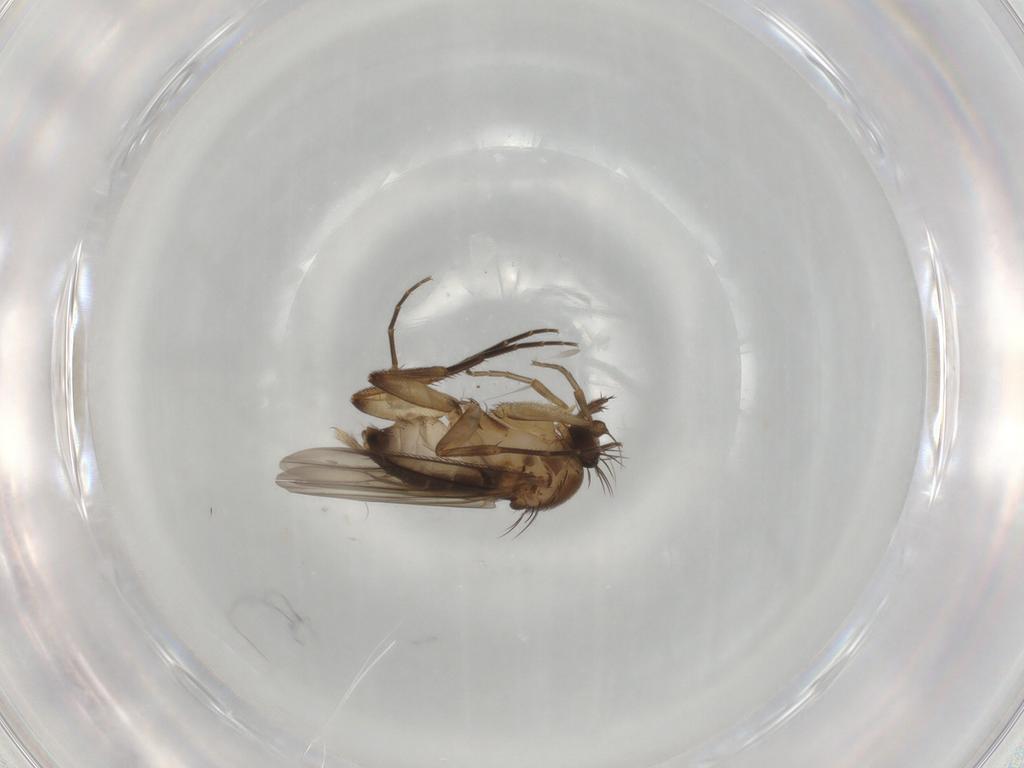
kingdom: Animalia
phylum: Arthropoda
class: Insecta
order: Diptera
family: Phoridae
